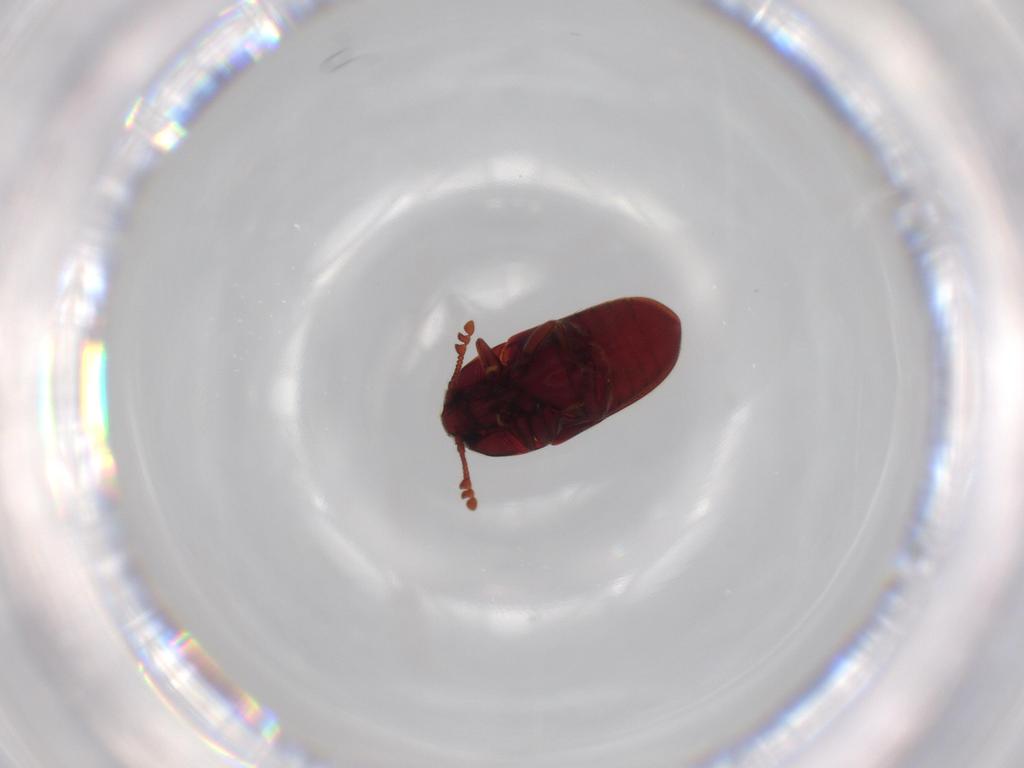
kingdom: Animalia
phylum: Arthropoda
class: Insecta
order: Coleoptera
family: Throscidae
